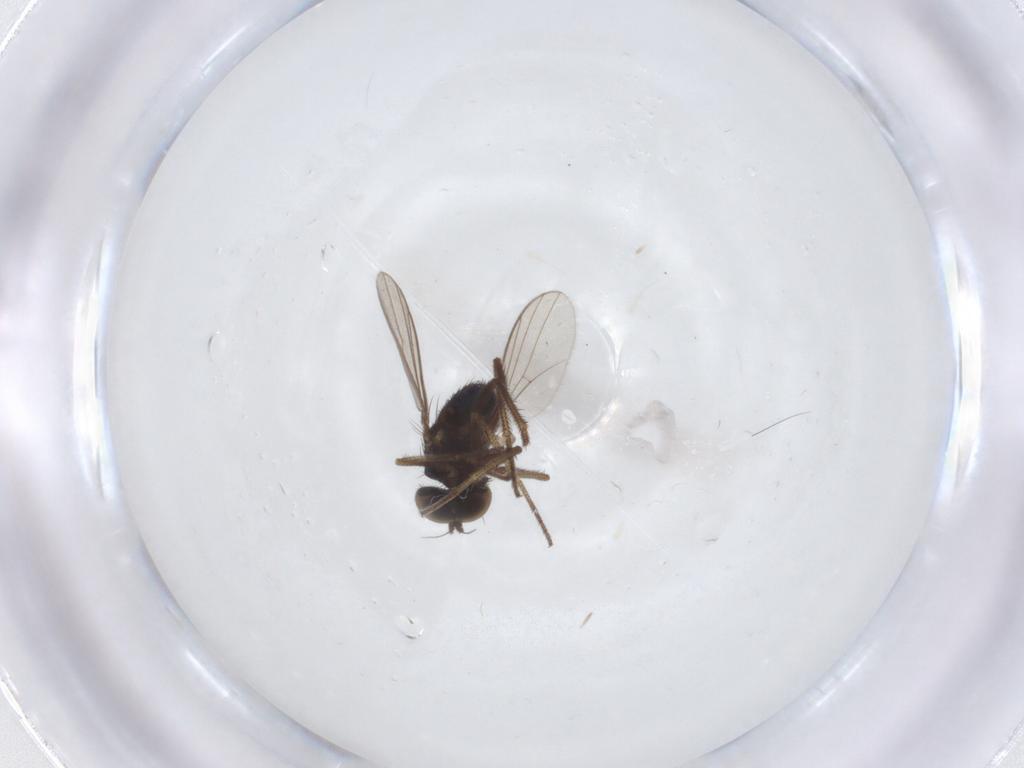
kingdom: Animalia
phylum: Arthropoda
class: Insecta
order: Diptera
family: Dolichopodidae
